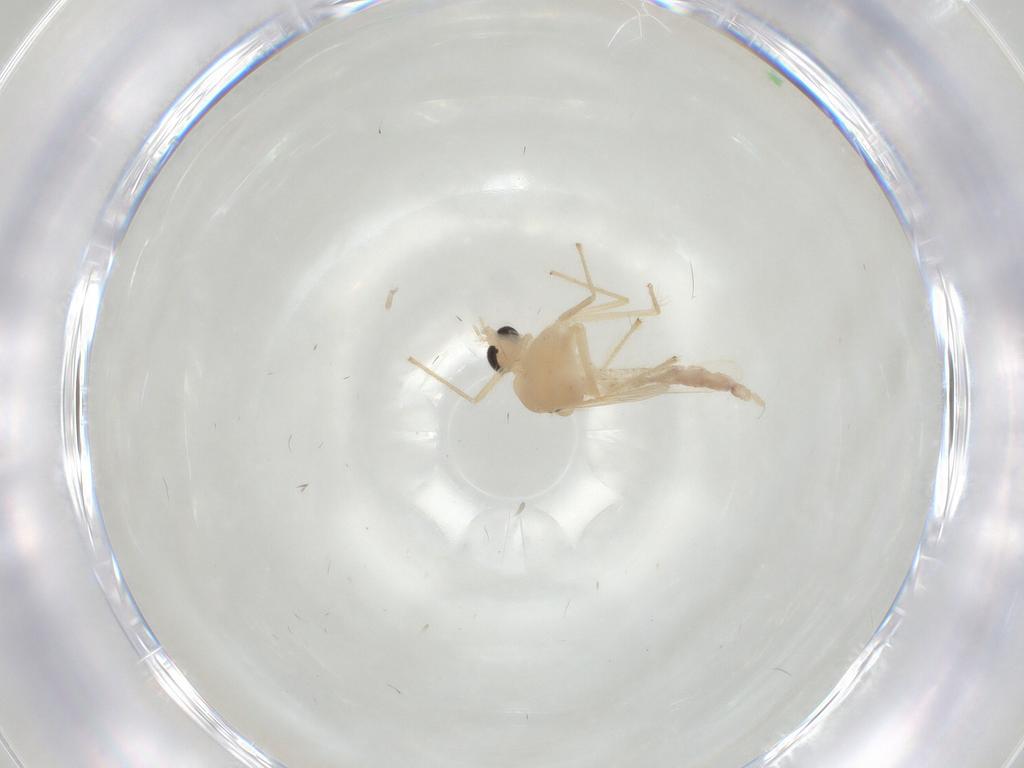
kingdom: Animalia
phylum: Arthropoda
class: Insecta
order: Diptera
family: Chironomidae
